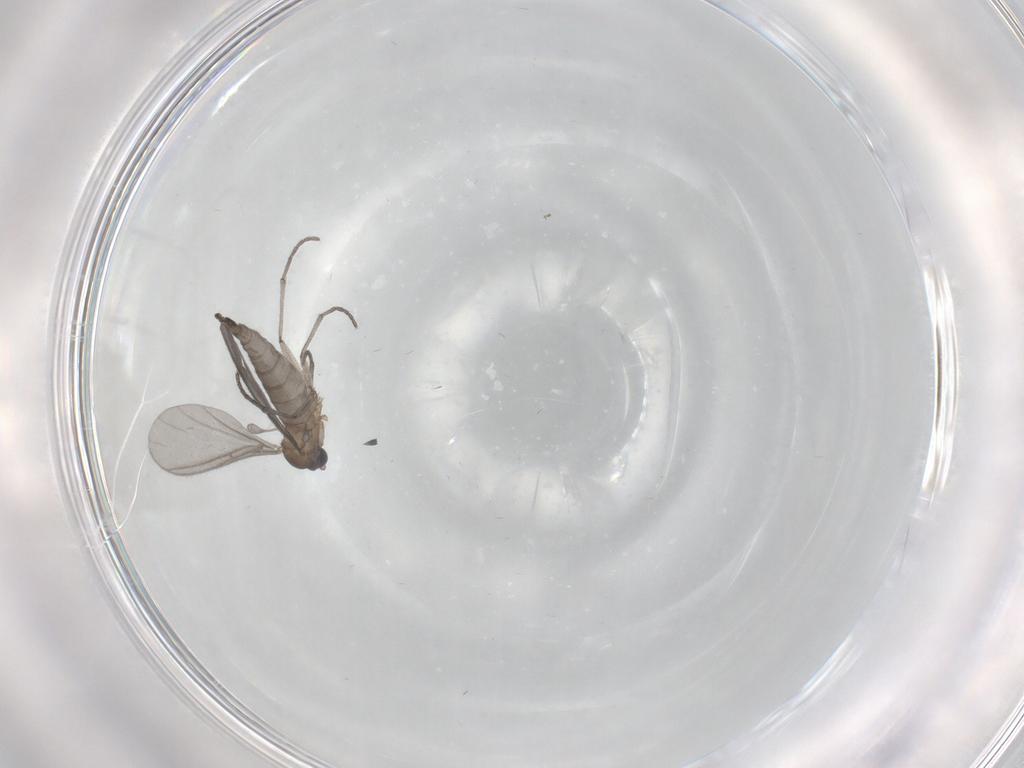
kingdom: Animalia
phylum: Arthropoda
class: Insecta
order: Diptera
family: Sciaridae
